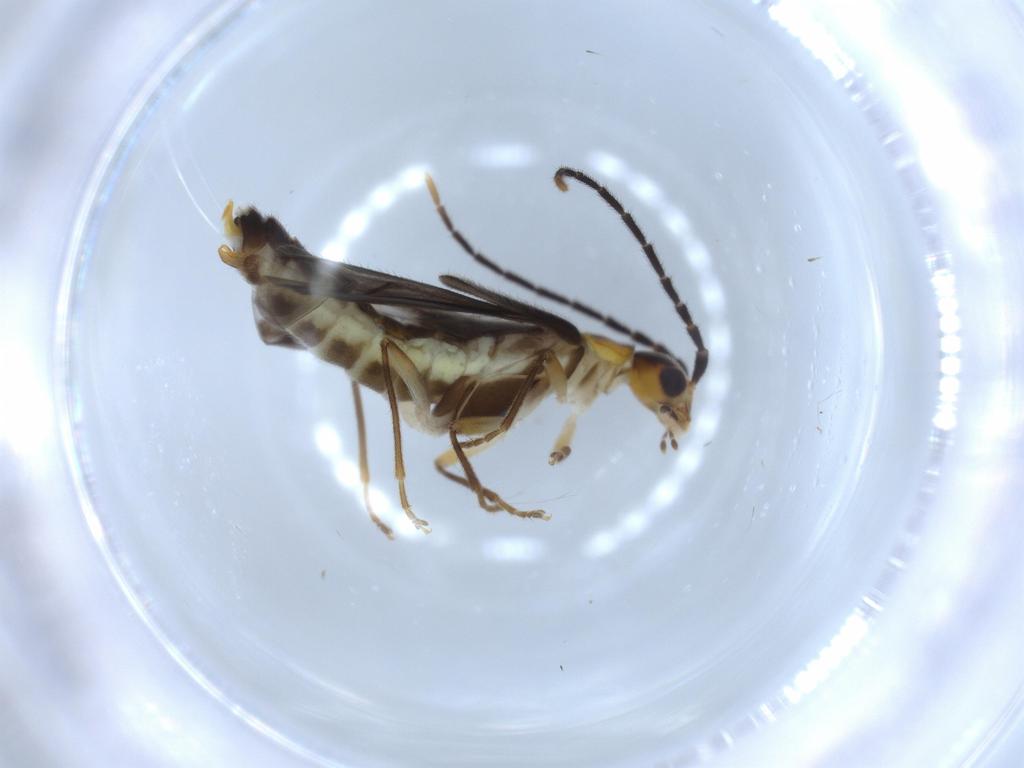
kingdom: Animalia
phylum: Arthropoda
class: Insecta
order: Coleoptera
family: Cantharidae
